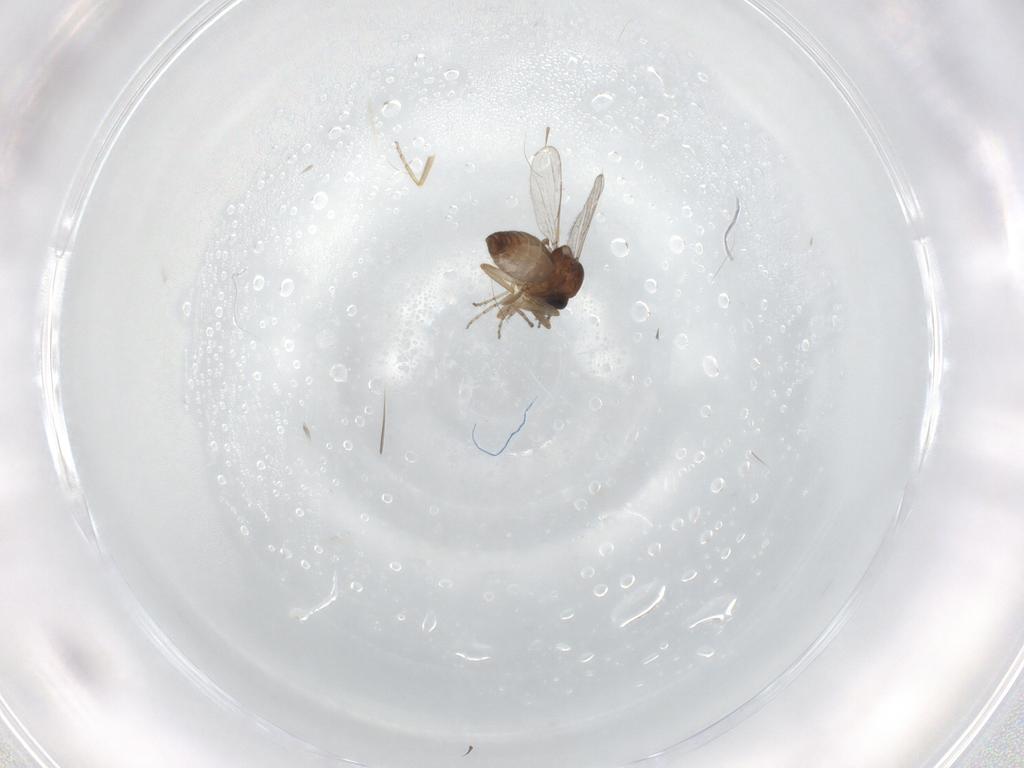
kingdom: Animalia
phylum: Arthropoda
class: Insecta
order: Diptera
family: Ceratopogonidae
